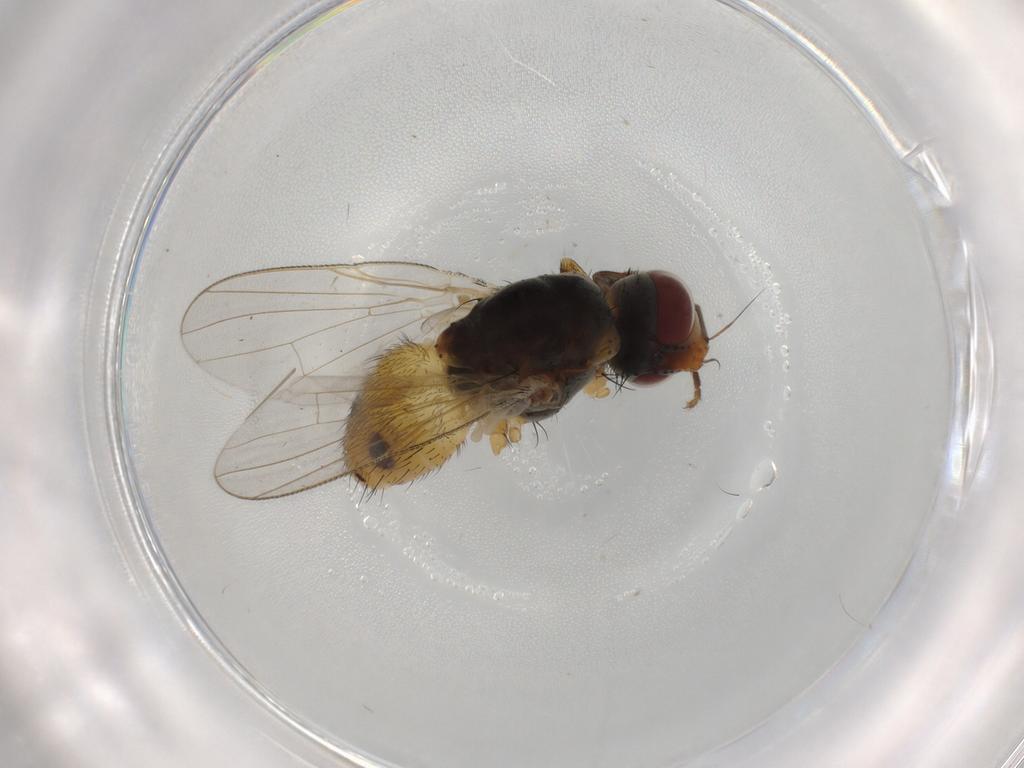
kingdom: Animalia
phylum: Arthropoda
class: Insecta
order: Diptera
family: Muscidae
